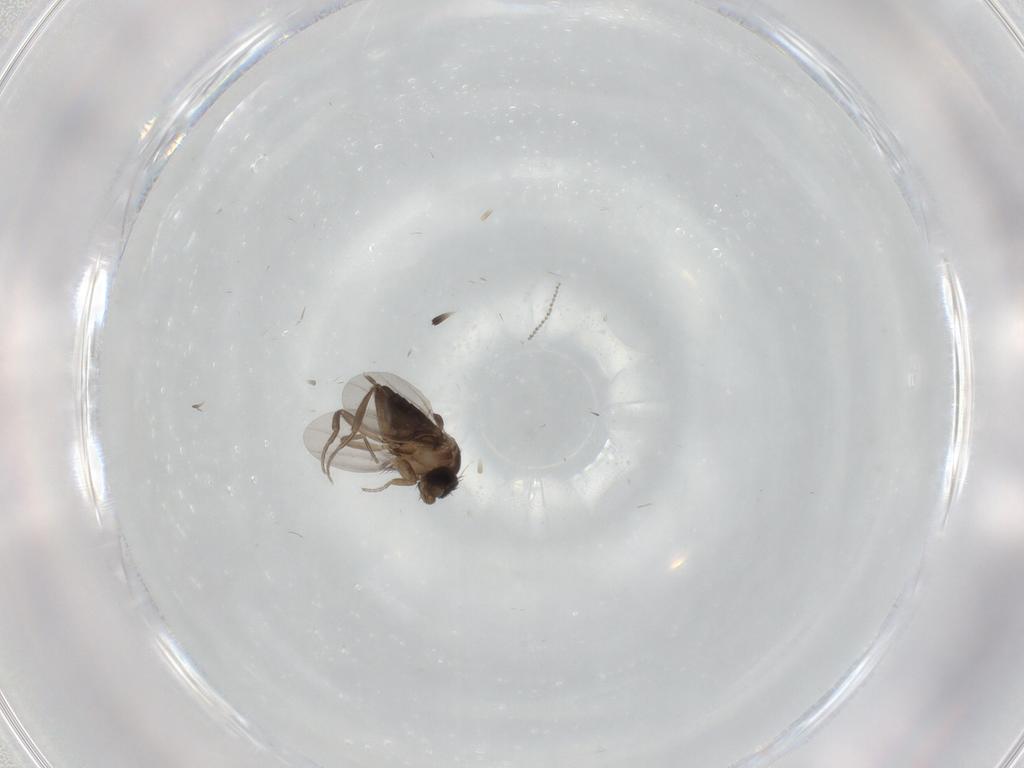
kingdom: Animalia
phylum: Arthropoda
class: Insecta
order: Diptera
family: Phoridae
